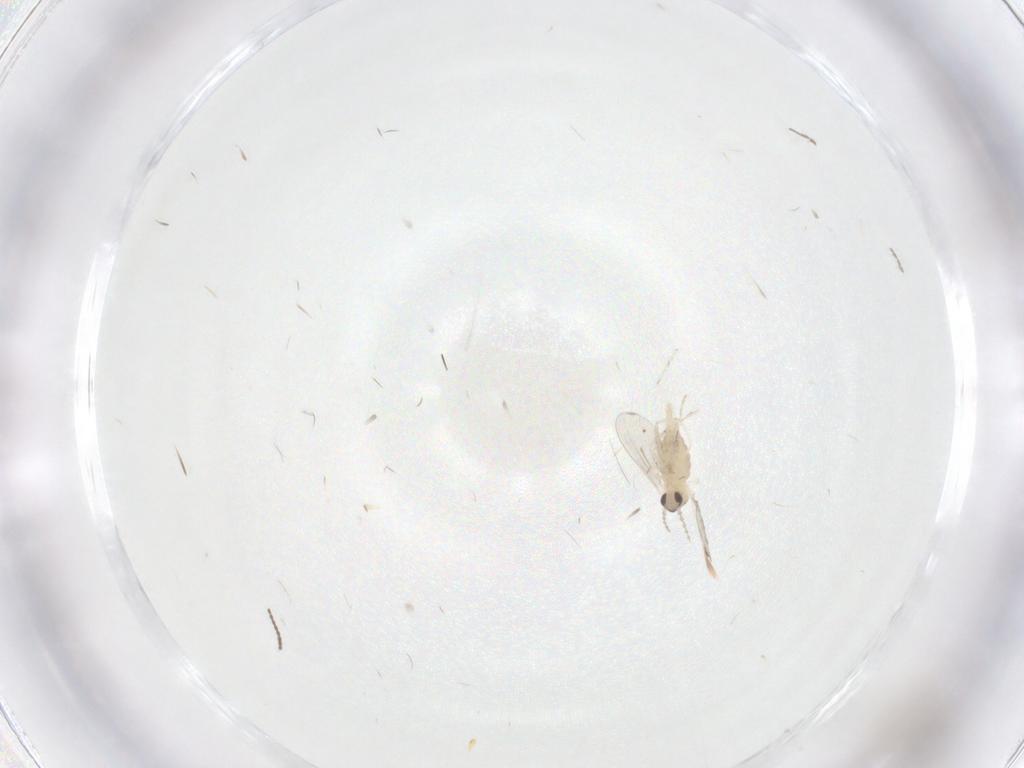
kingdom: Animalia
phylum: Arthropoda
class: Insecta
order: Diptera
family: Cecidomyiidae
